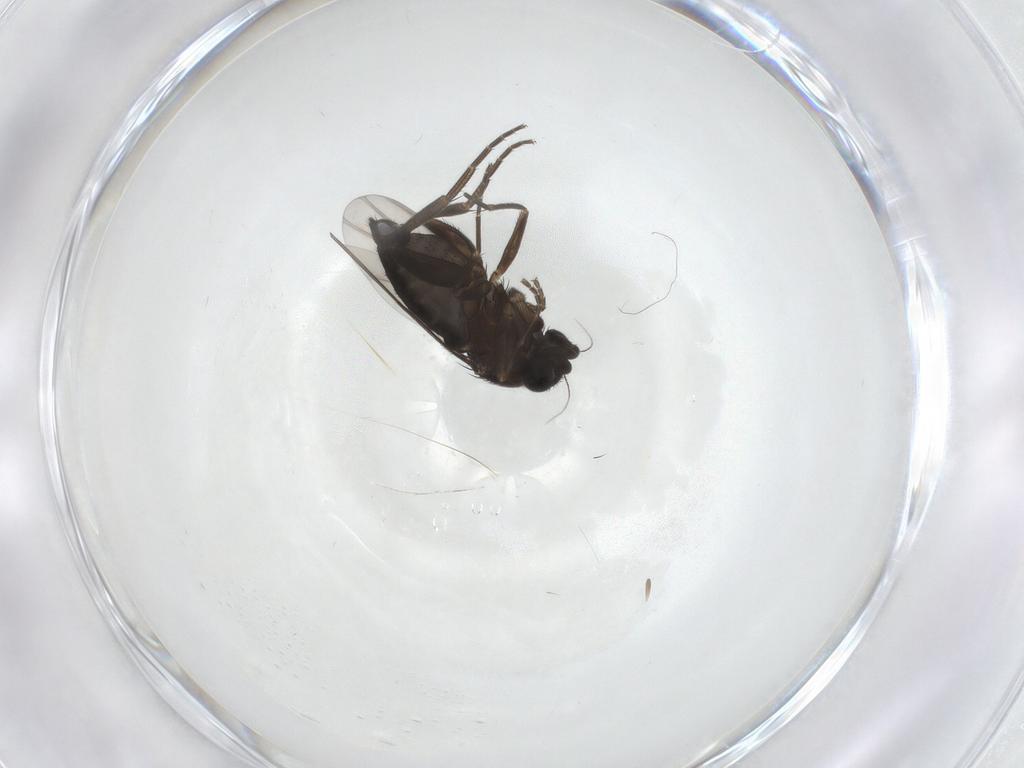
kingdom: Animalia
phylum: Arthropoda
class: Insecta
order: Diptera
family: Phoridae
